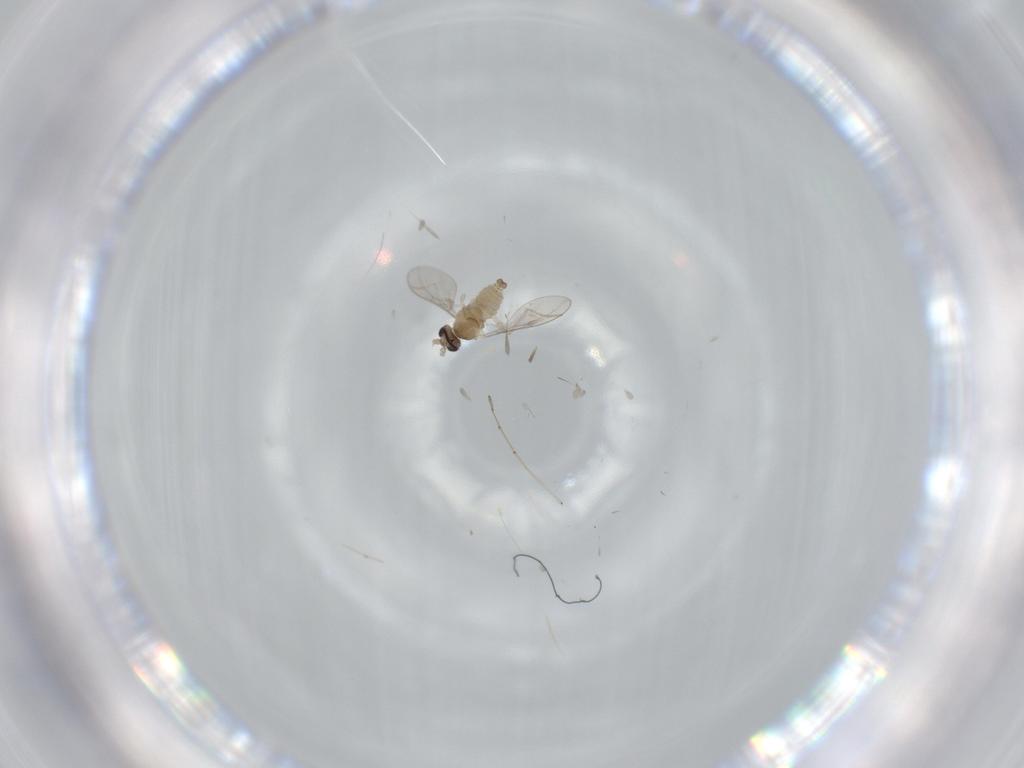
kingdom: Animalia
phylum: Arthropoda
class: Insecta
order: Diptera
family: Cecidomyiidae
